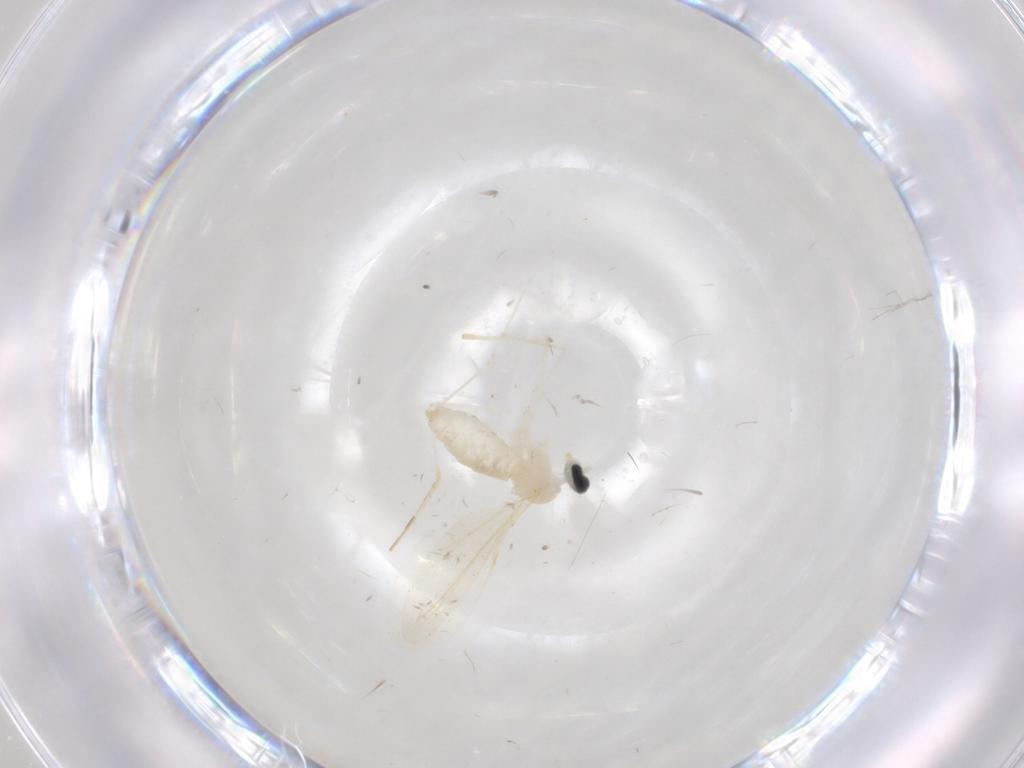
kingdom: Animalia
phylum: Arthropoda
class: Insecta
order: Diptera
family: Cecidomyiidae
